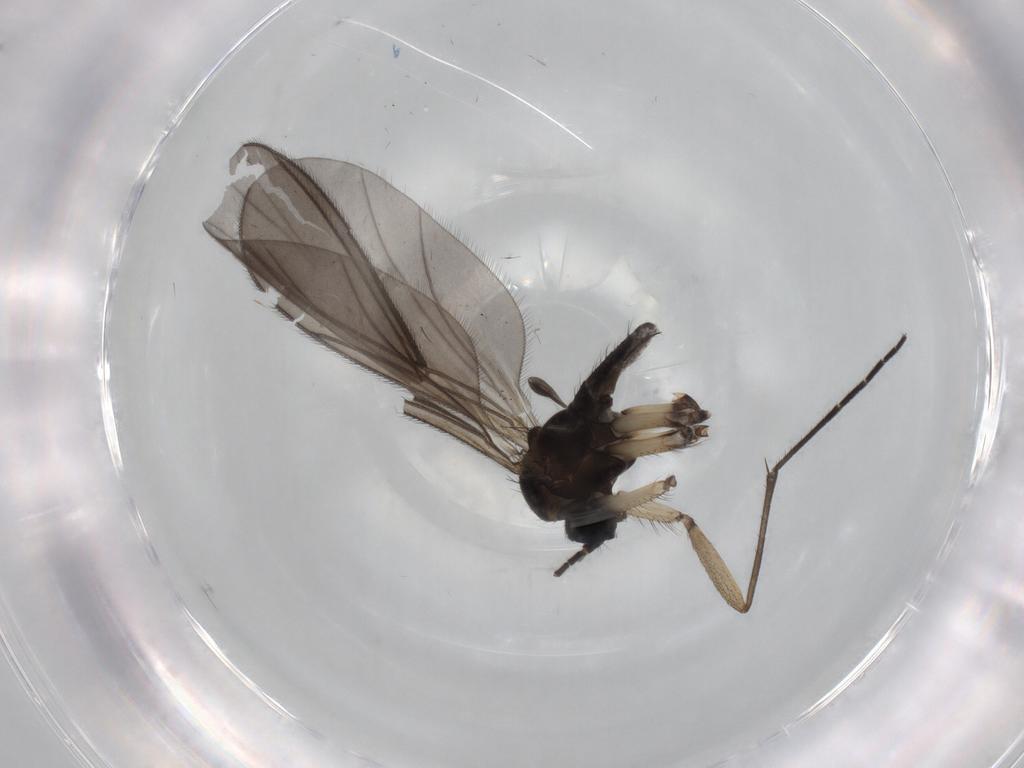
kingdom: Animalia
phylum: Arthropoda
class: Insecta
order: Diptera
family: Sciaridae
